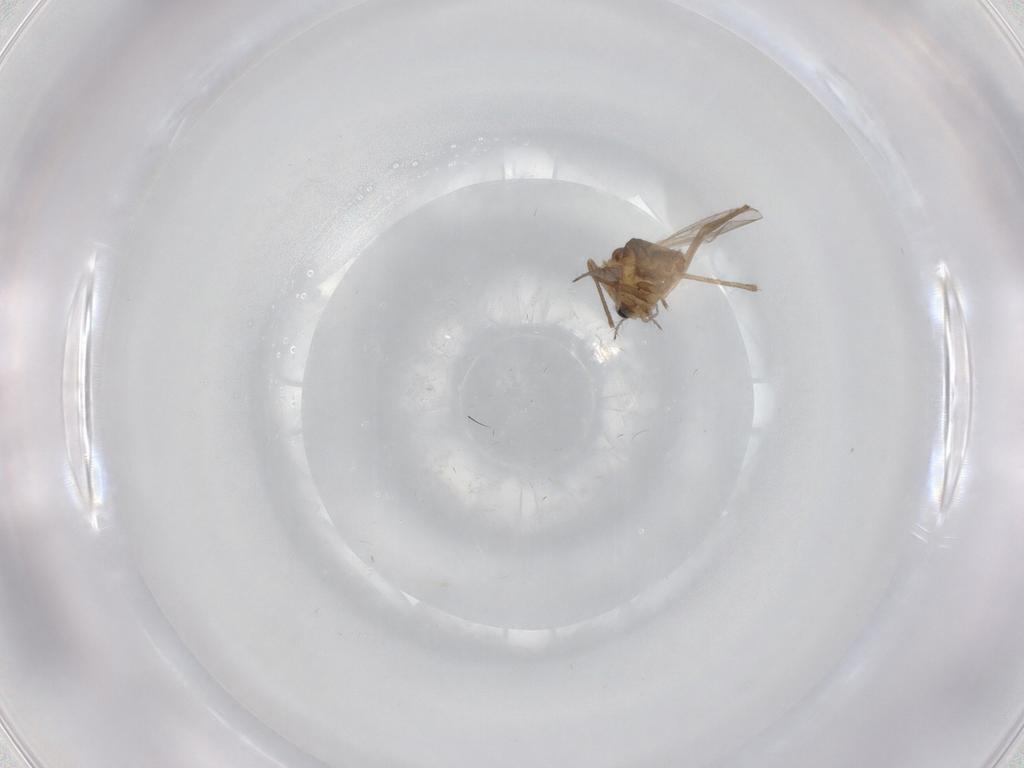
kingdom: Animalia
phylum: Arthropoda
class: Insecta
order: Diptera
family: Chironomidae
